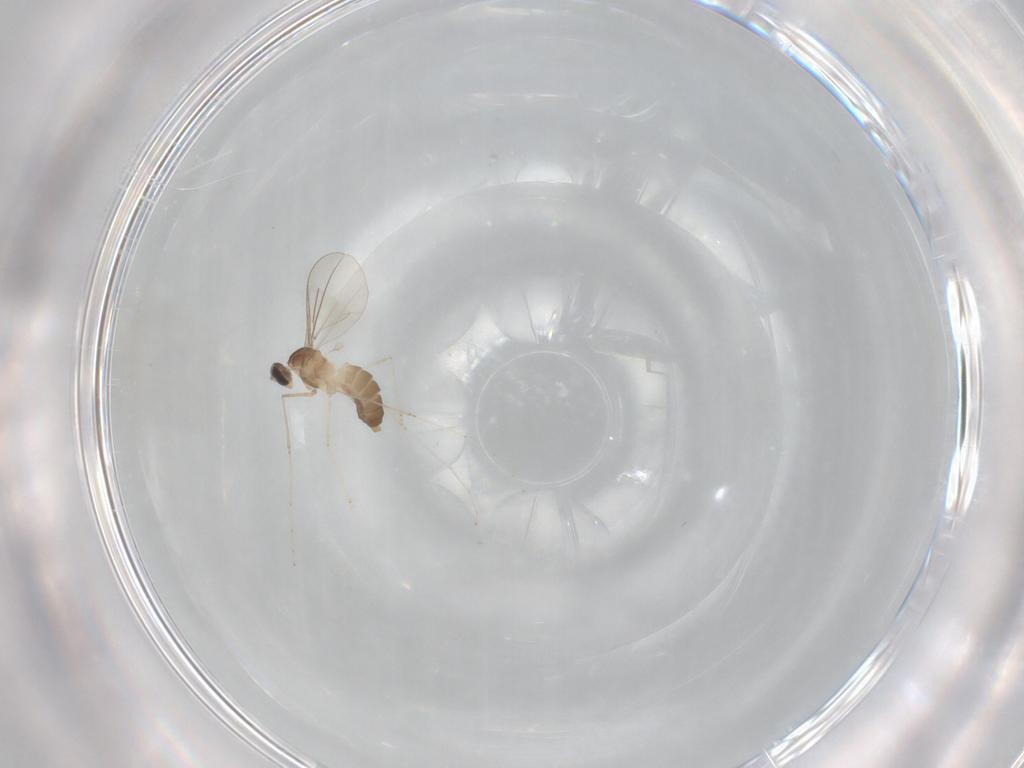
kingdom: Animalia
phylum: Arthropoda
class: Insecta
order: Diptera
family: Cecidomyiidae
